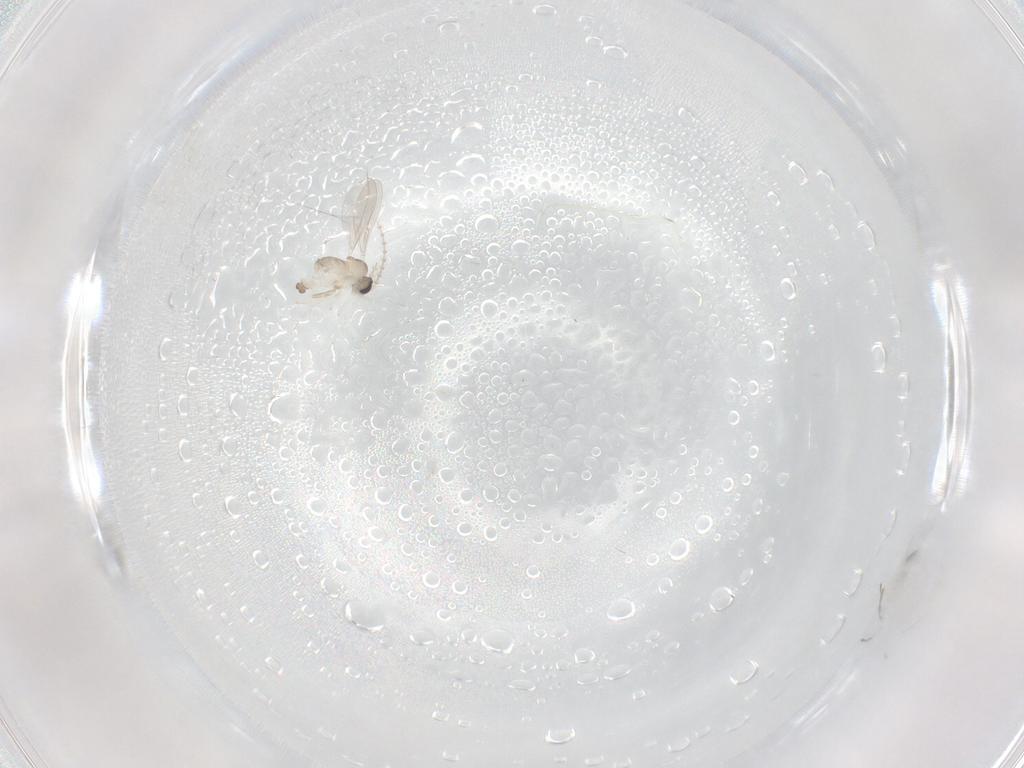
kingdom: Animalia
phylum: Arthropoda
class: Insecta
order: Diptera
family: Cecidomyiidae
